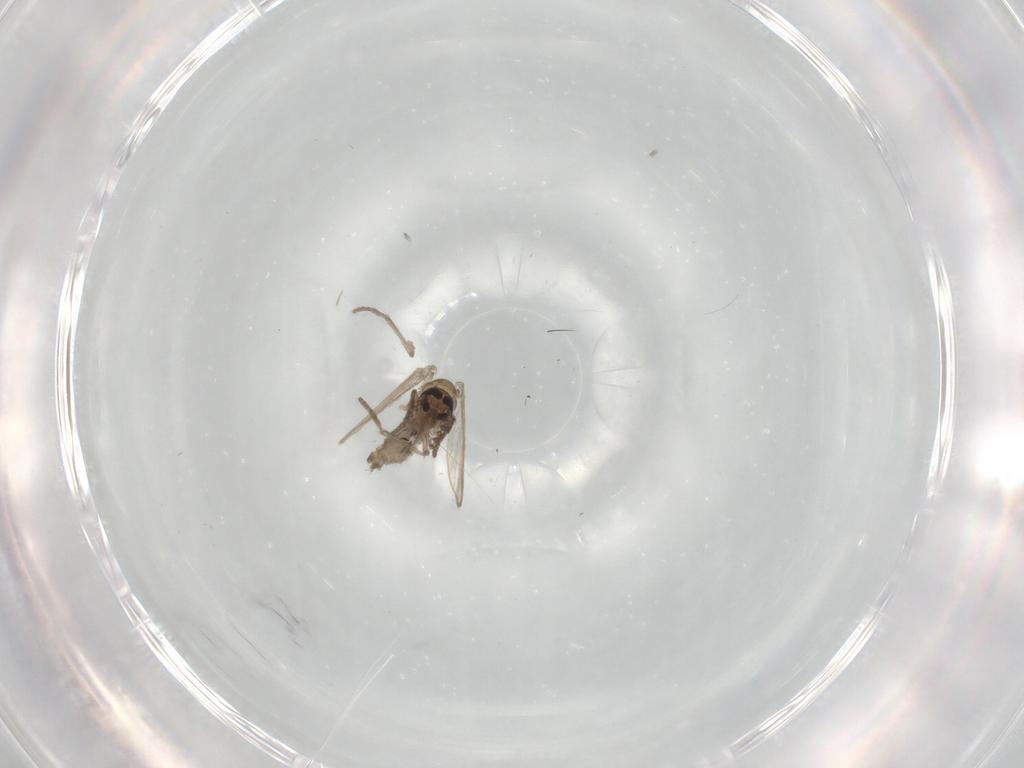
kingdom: Animalia
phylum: Arthropoda
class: Insecta
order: Diptera
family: Psychodidae
